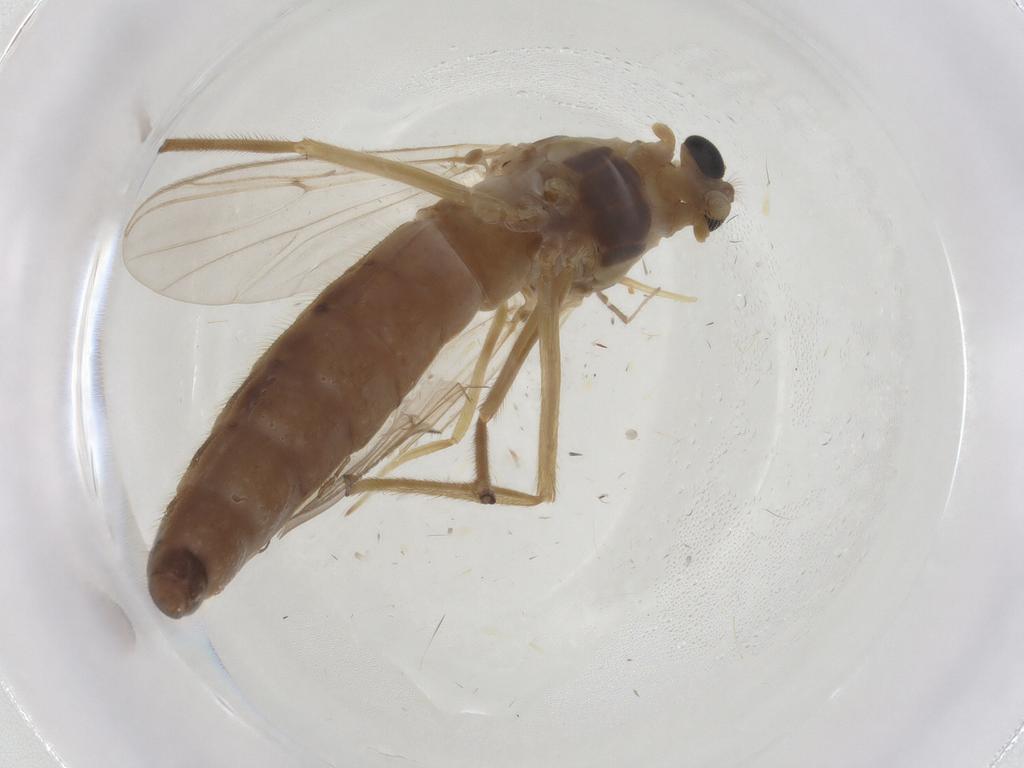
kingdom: Animalia
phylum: Arthropoda
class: Insecta
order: Diptera
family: Chironomidae
